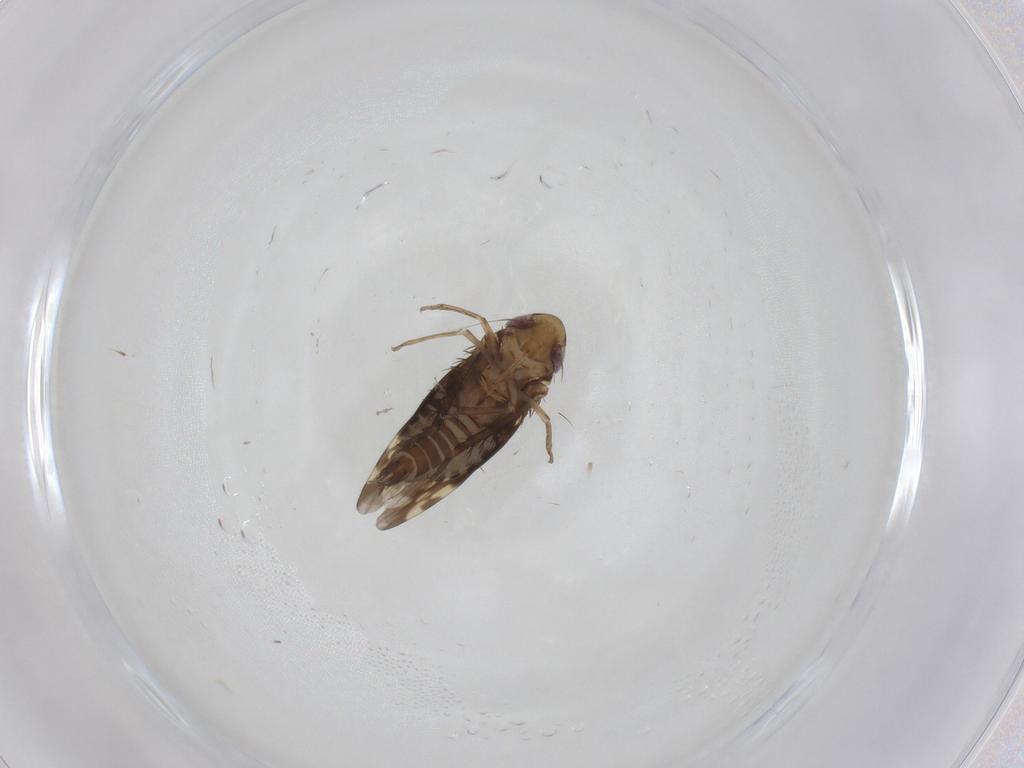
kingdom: Animalia
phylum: Arthropoda
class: Insecta
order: Hemiptera
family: Cicadellidae
